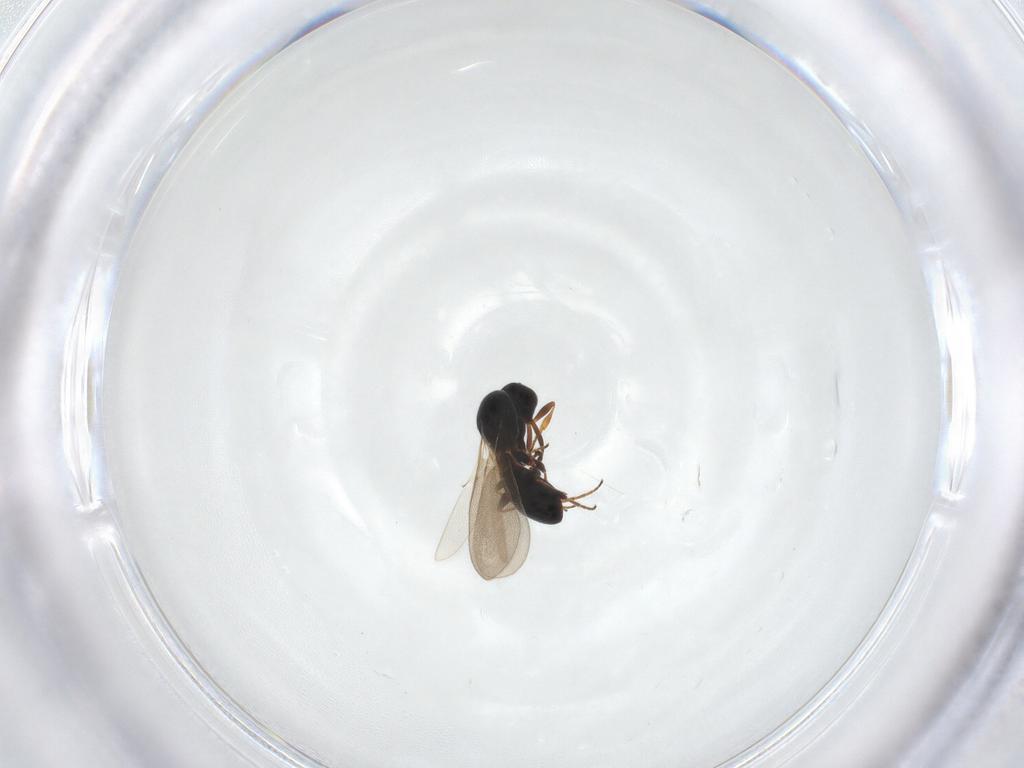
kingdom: Animalia
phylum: Arthropoda
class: Insecta
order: Hymenoptera
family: Platygastridae
